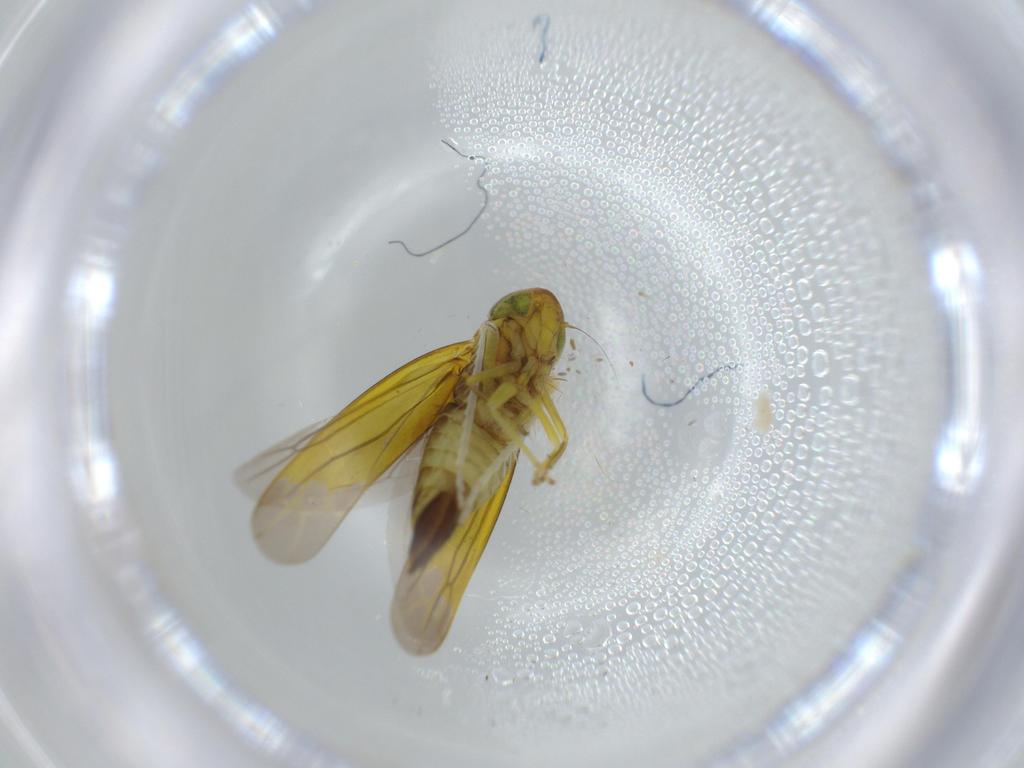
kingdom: Animalia
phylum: Arthropoda
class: Insecta
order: Hemiptera
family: Cicadellidae
